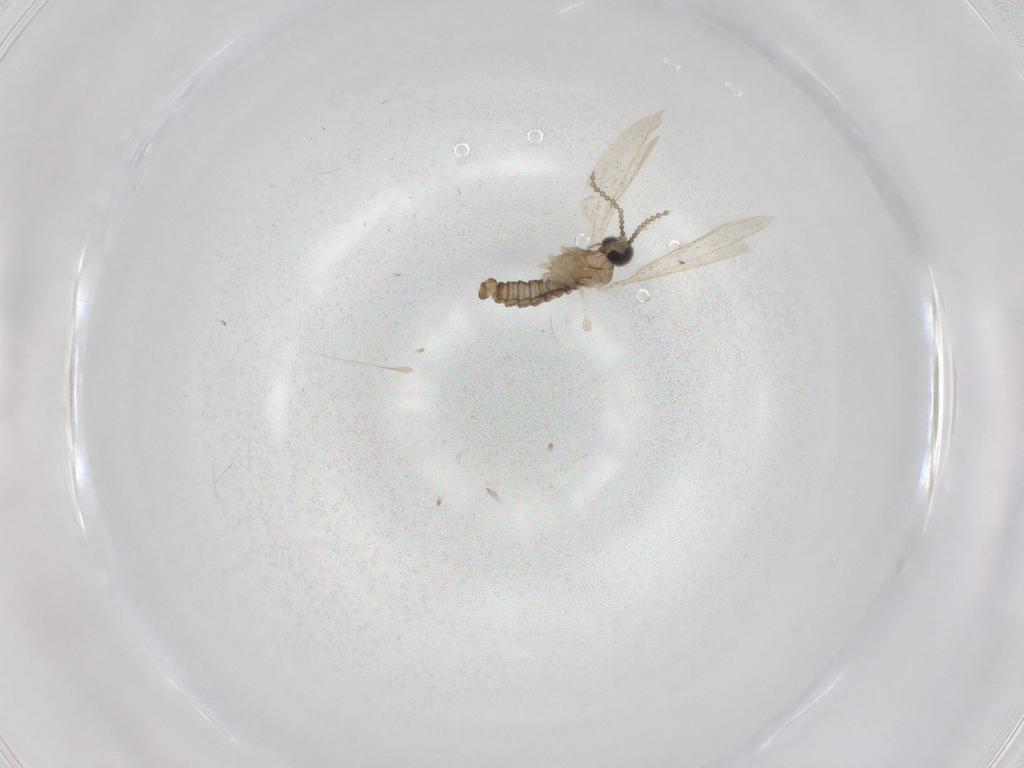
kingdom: Animalia
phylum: Arthropoda
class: Insecta
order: Diptera
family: Cecidomyiidae
